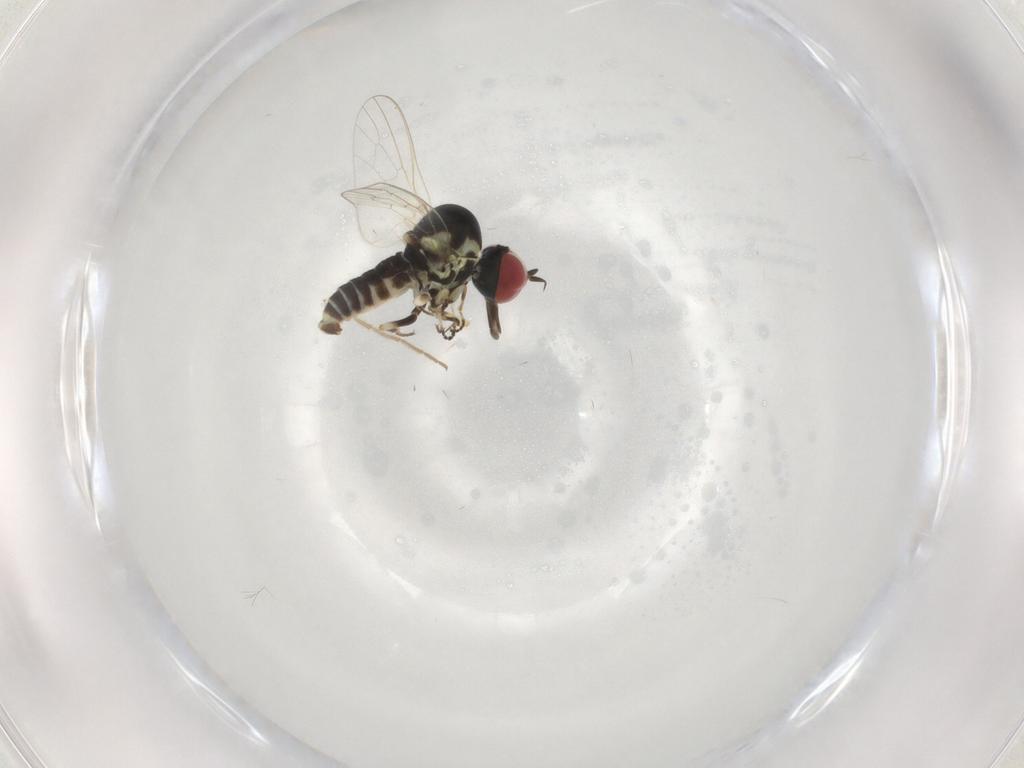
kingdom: Animalia
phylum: Arthropoda
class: Insecta
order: Diptera
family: Bombyliidae
